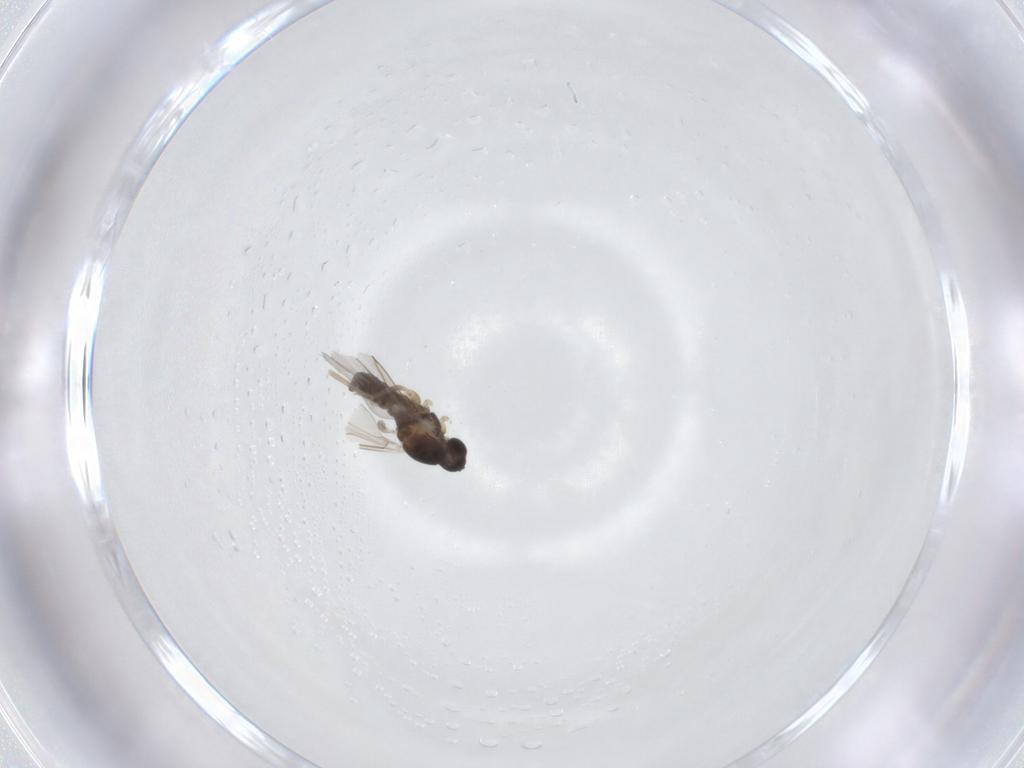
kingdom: Animalia
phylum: Arthropoda
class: Insecta
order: Diptera
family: Cecidomyiidae
